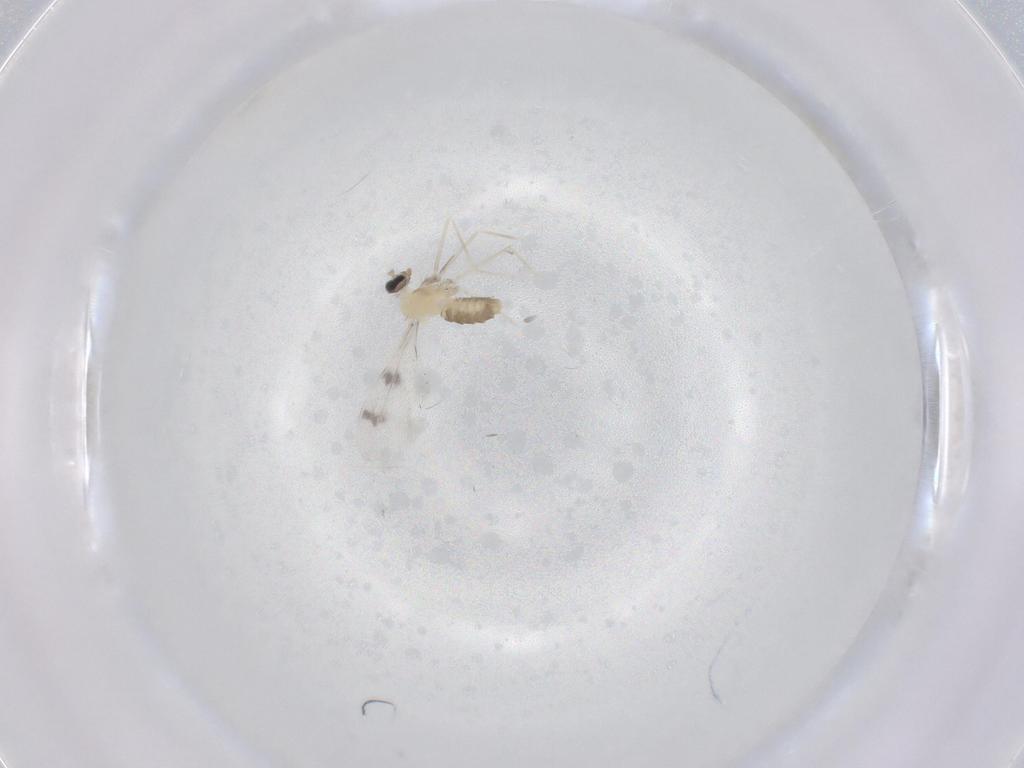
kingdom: Animalia
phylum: Arthropoda
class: Insecta
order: Diptera
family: Cecidomyiidae
